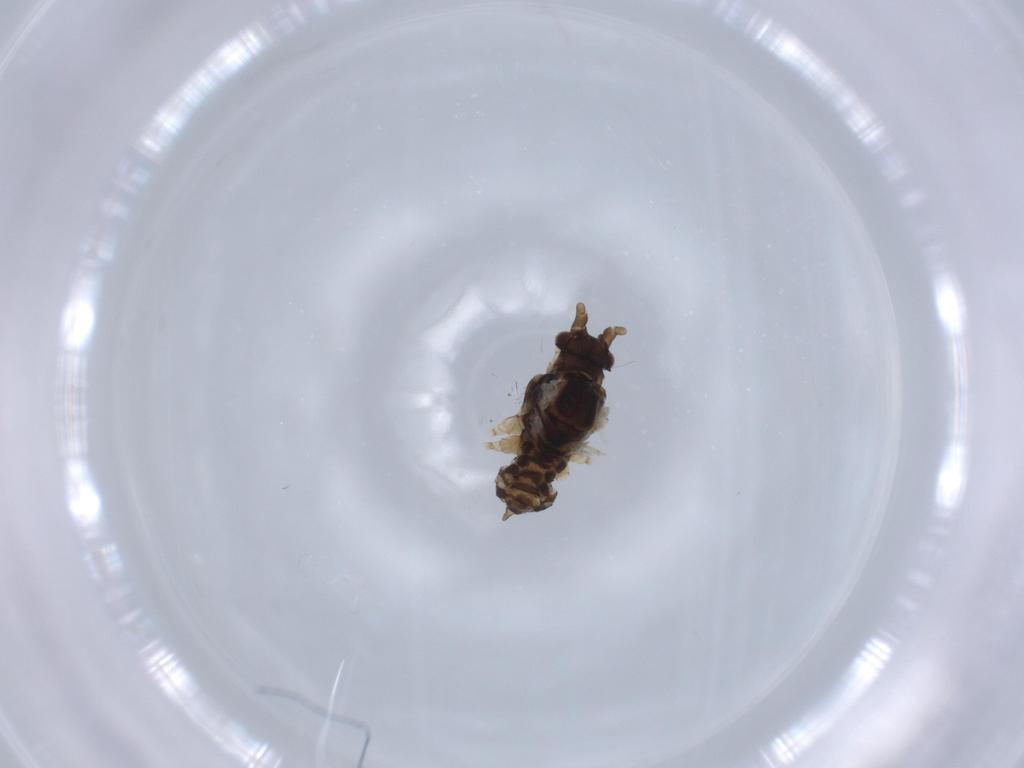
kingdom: Animalia
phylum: Arthropoda
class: Insecta
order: Hemiptera
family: Aphididae
